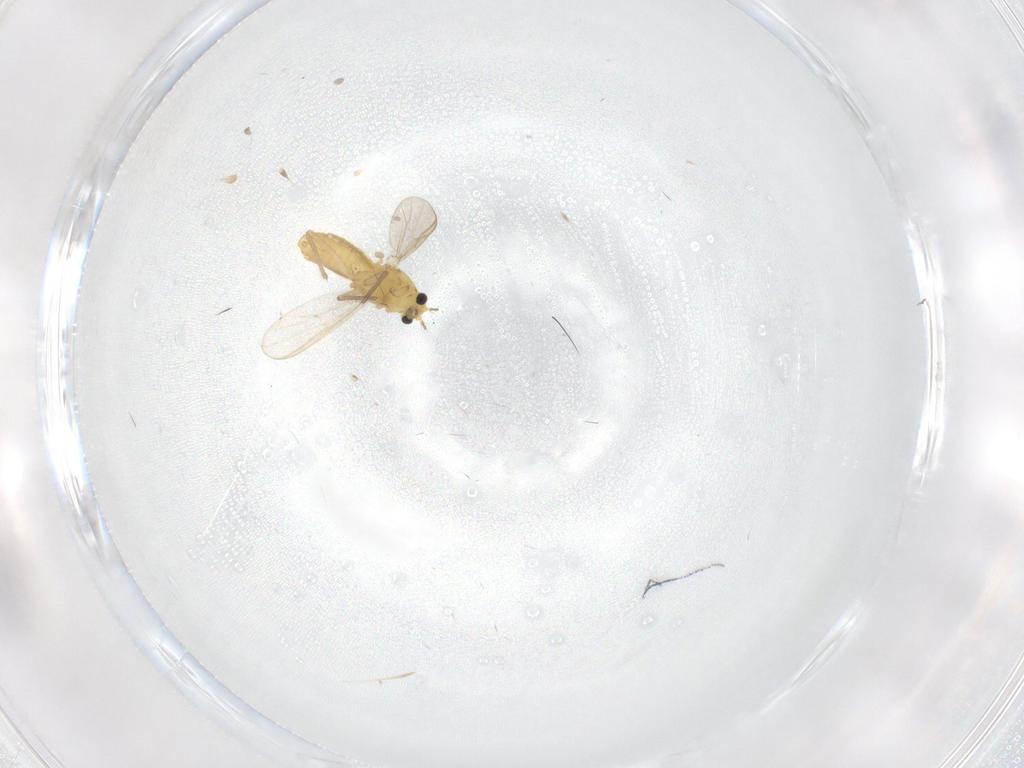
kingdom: Animalia
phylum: Arthropoda
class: Insecta
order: Diptera
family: Chironomidae
